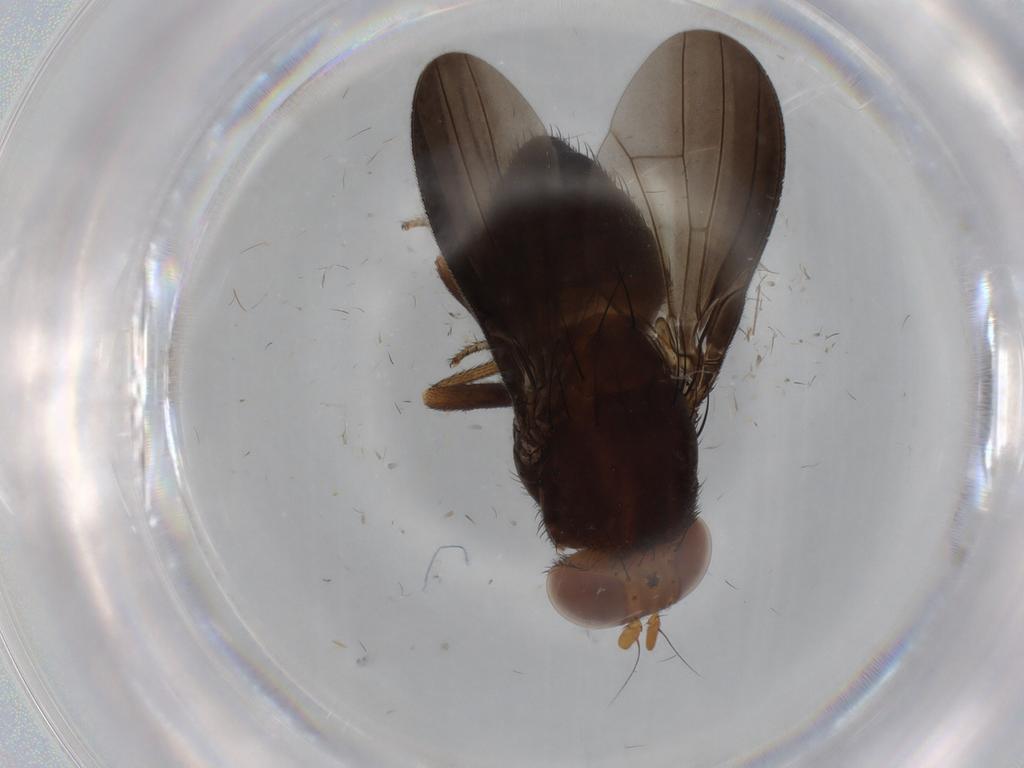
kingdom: Animalia
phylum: Arthropoda
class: Insecta
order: Diptera
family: Chironomidae
